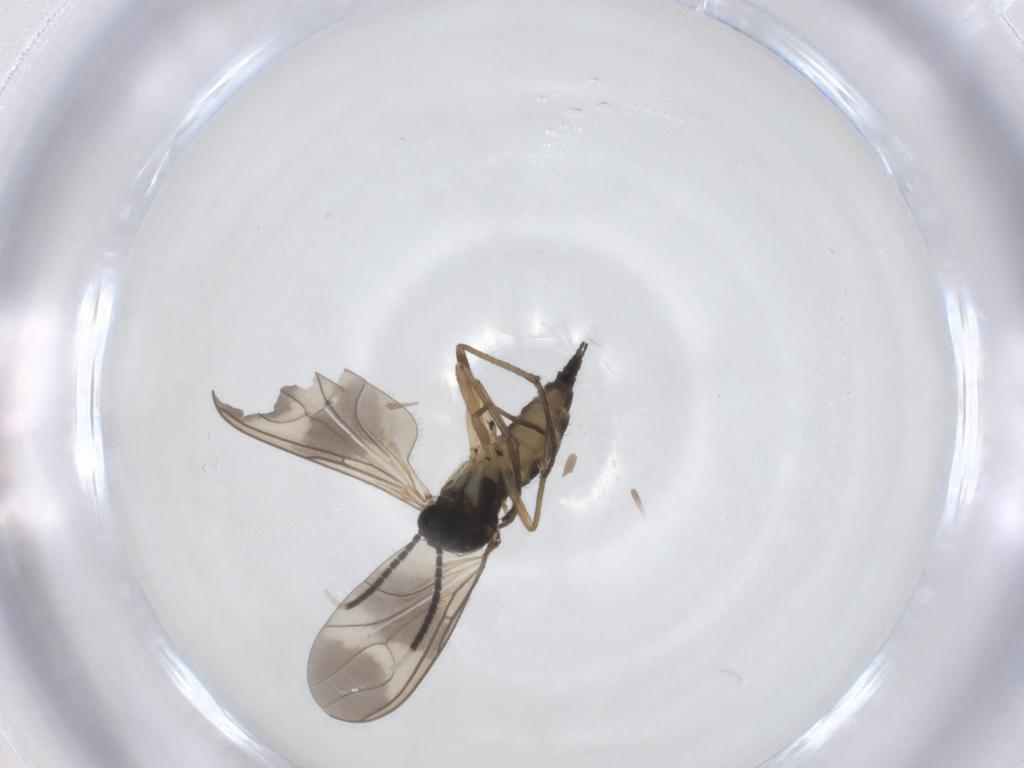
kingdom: Animalia
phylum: Arthropoda
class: Insecta
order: Diptera
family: Sciaridae
